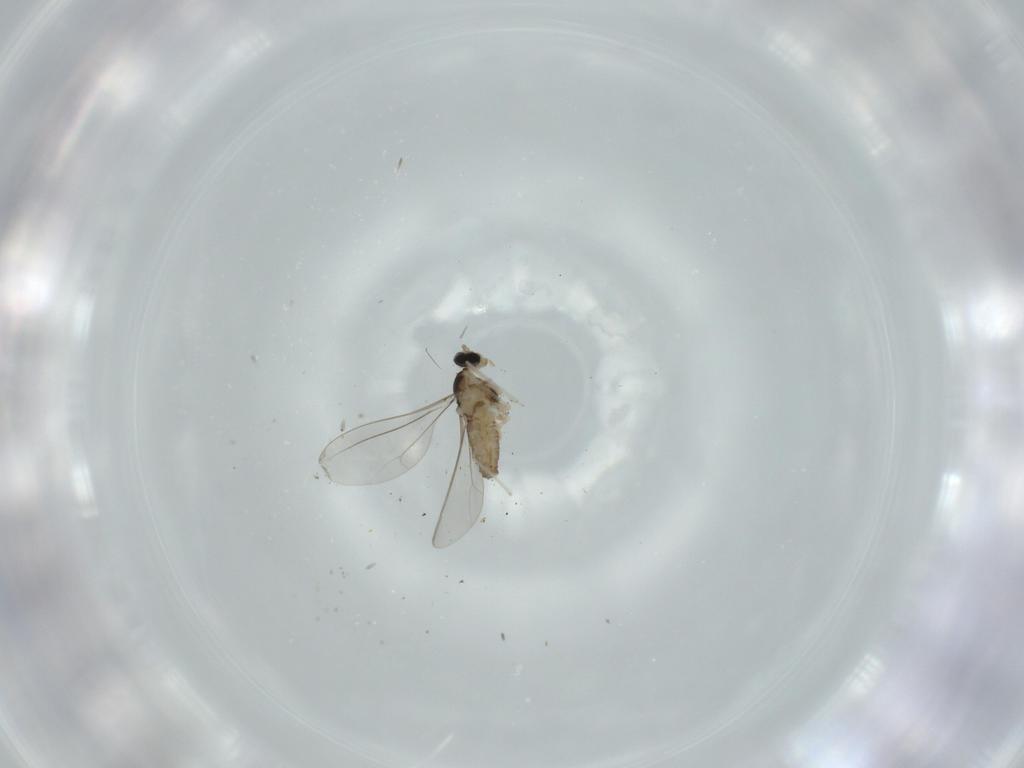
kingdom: Animalia
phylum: Arthropoda
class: Insecta
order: Diptera
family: Cecidomyiidae
